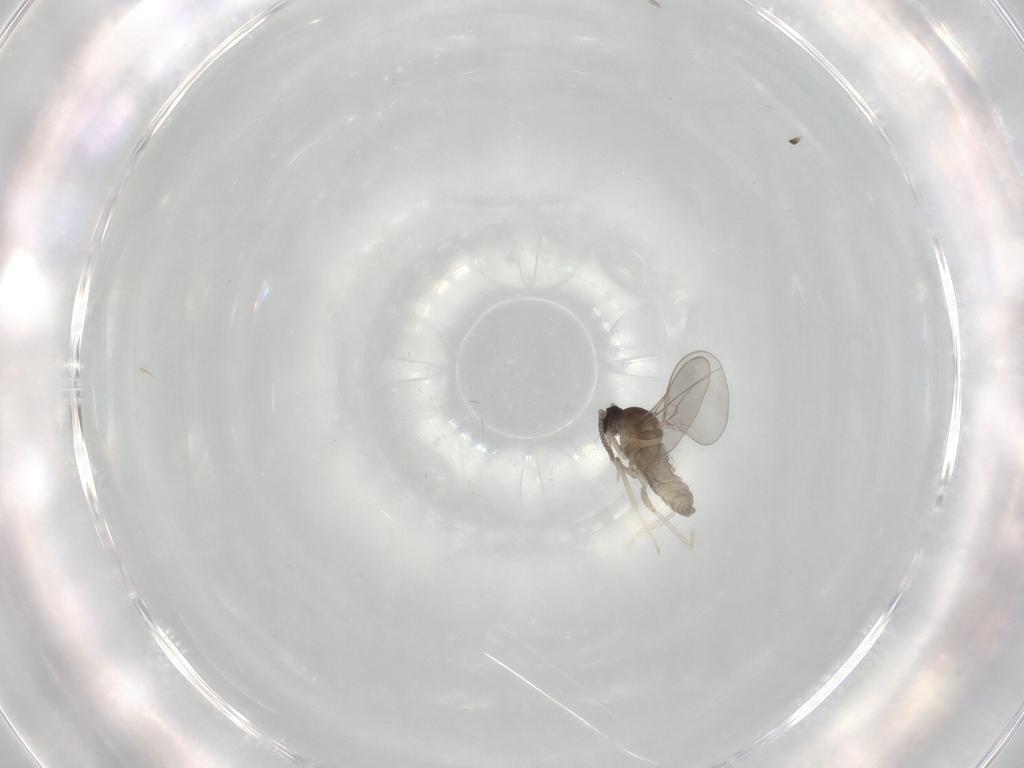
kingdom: Animalia
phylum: Arthropoda
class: Insecta
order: Diptera
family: Cecidomyiidae
